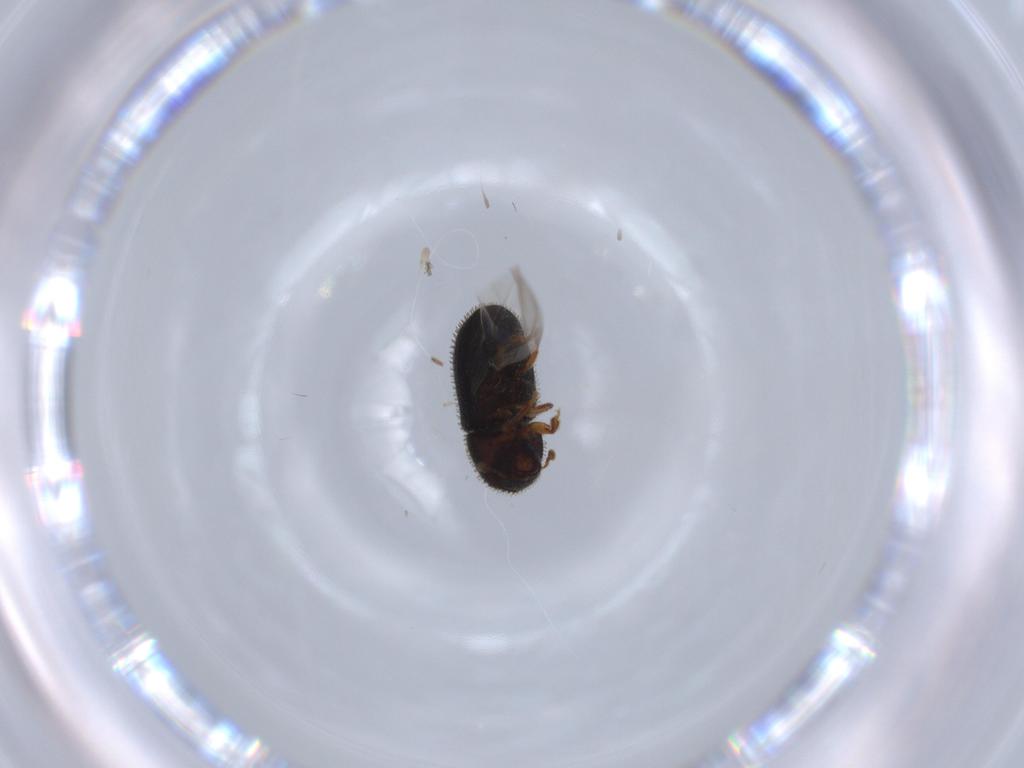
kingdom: Animalia
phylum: Arthropoda
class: Insecta
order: Coleoptera
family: Curculionidae
